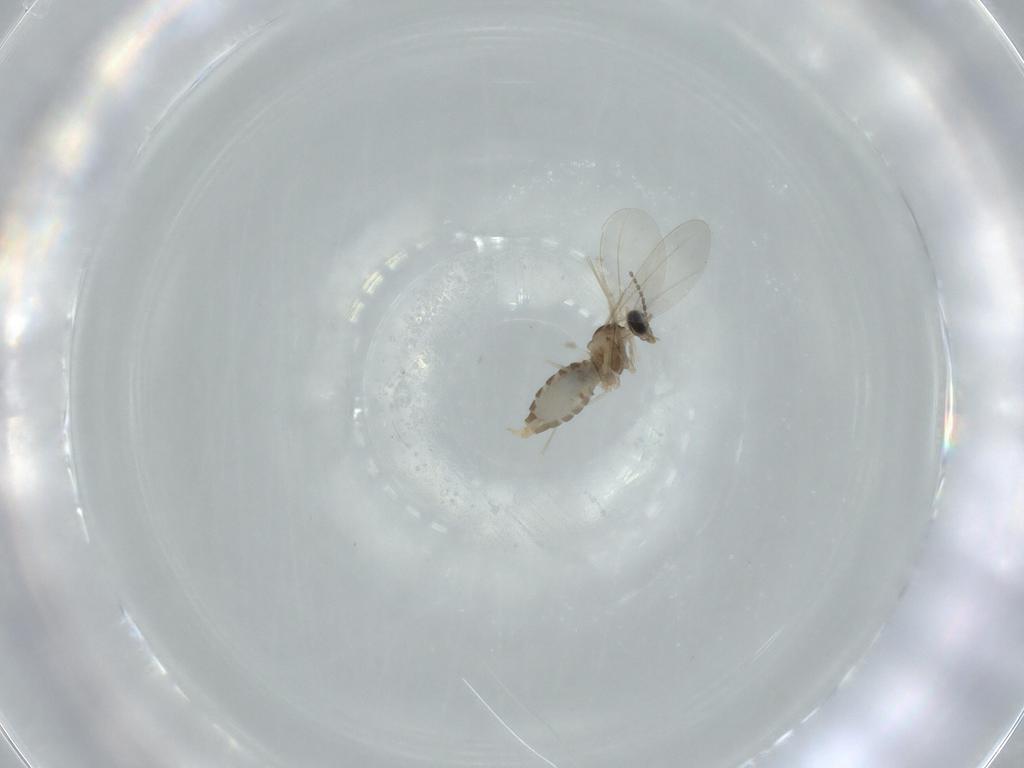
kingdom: Animalia
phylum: Arthropoda
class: Insecta
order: Diptera
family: Cecidomyiidae
